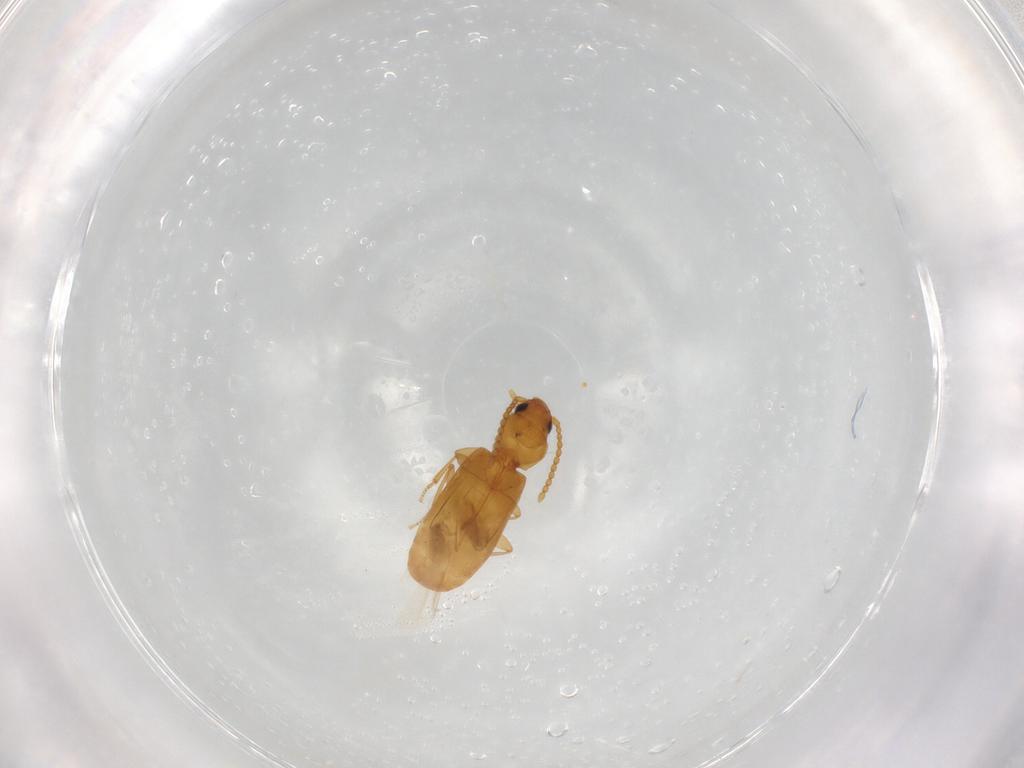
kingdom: Animalia
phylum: Arthropoda
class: Insecta
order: Coleoptera
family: Carabidae
